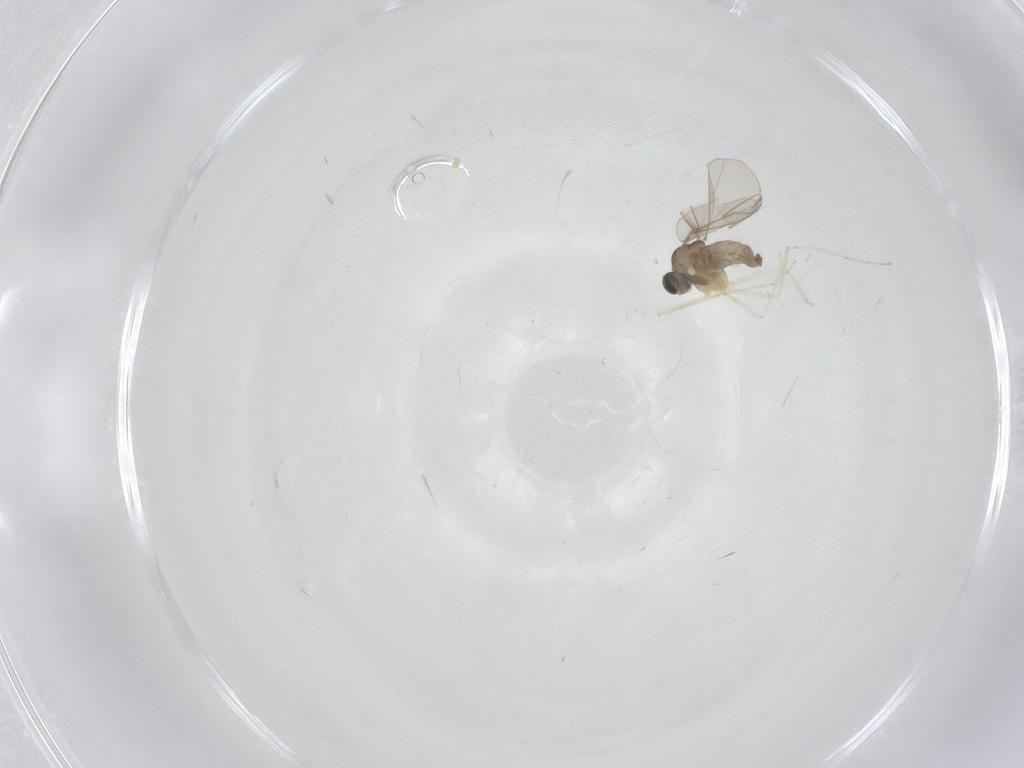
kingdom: Animalia
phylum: Arthropoda
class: Insecta
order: Diptera
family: Cecidomyiidae
